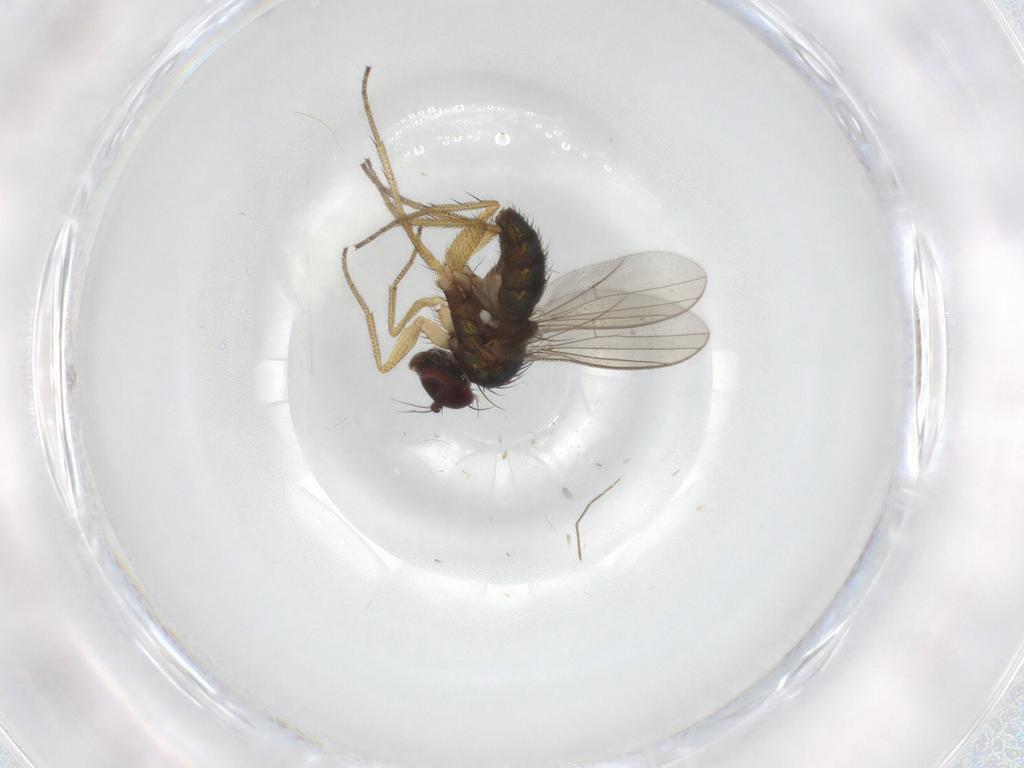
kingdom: Animalia
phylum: Arthropoda
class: Insecta
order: Diptera
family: Chironomidae
